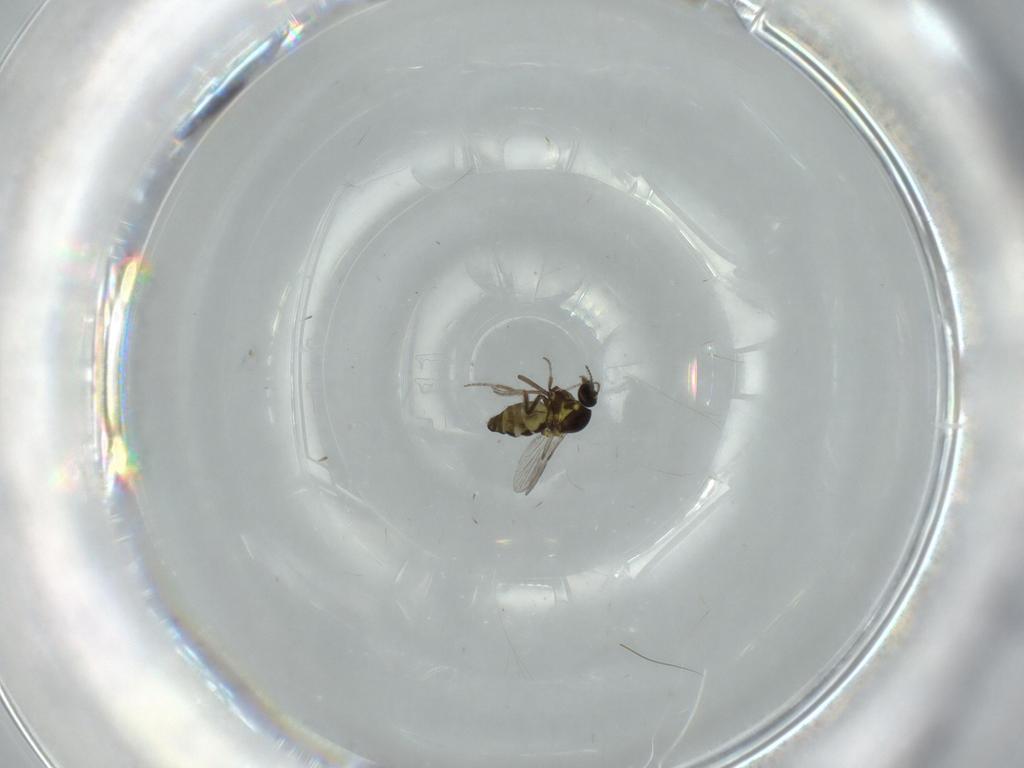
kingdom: Animalia
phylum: Arthropoda
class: Insecta
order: Diptera
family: Ceratopogonidae
